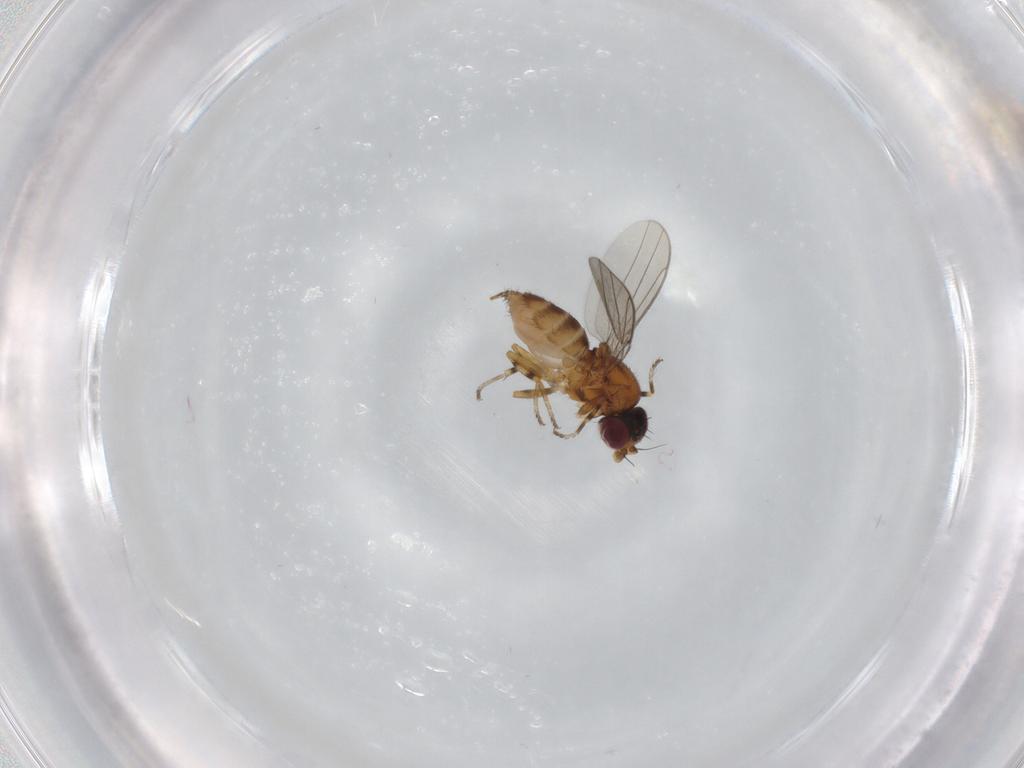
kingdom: Animalia
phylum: Arthropoda
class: Insecta
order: Diptera
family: Chloropidae
